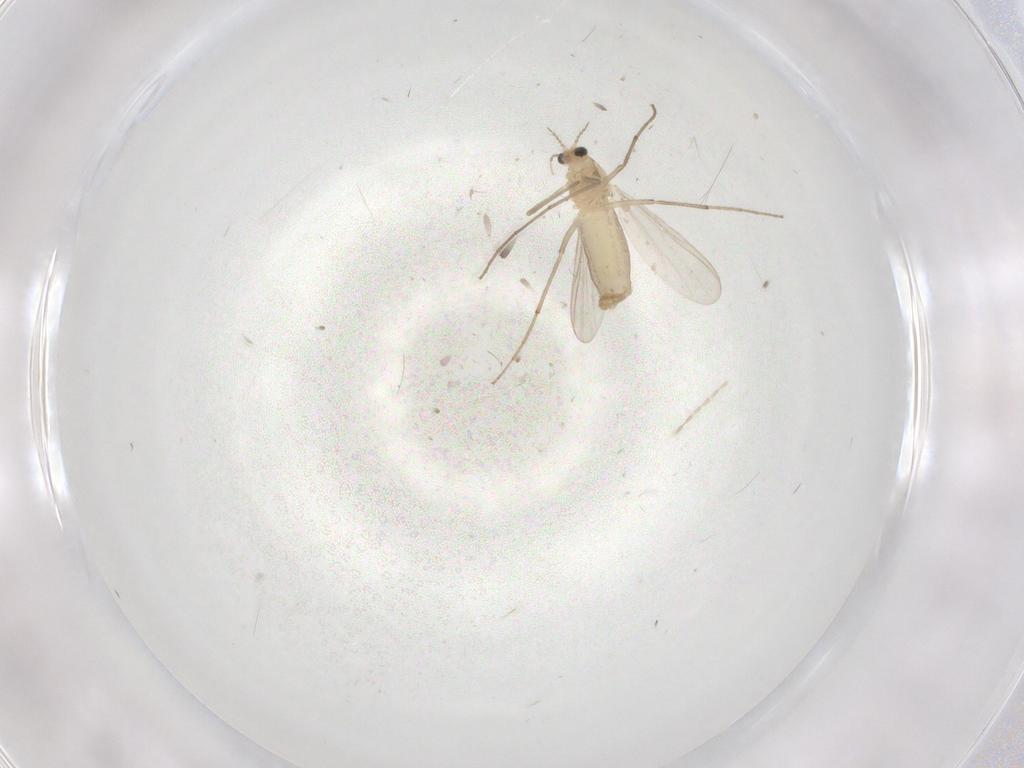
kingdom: Animalia
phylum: Arthropoda
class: Insecta
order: Diptera
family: Chironomidae
